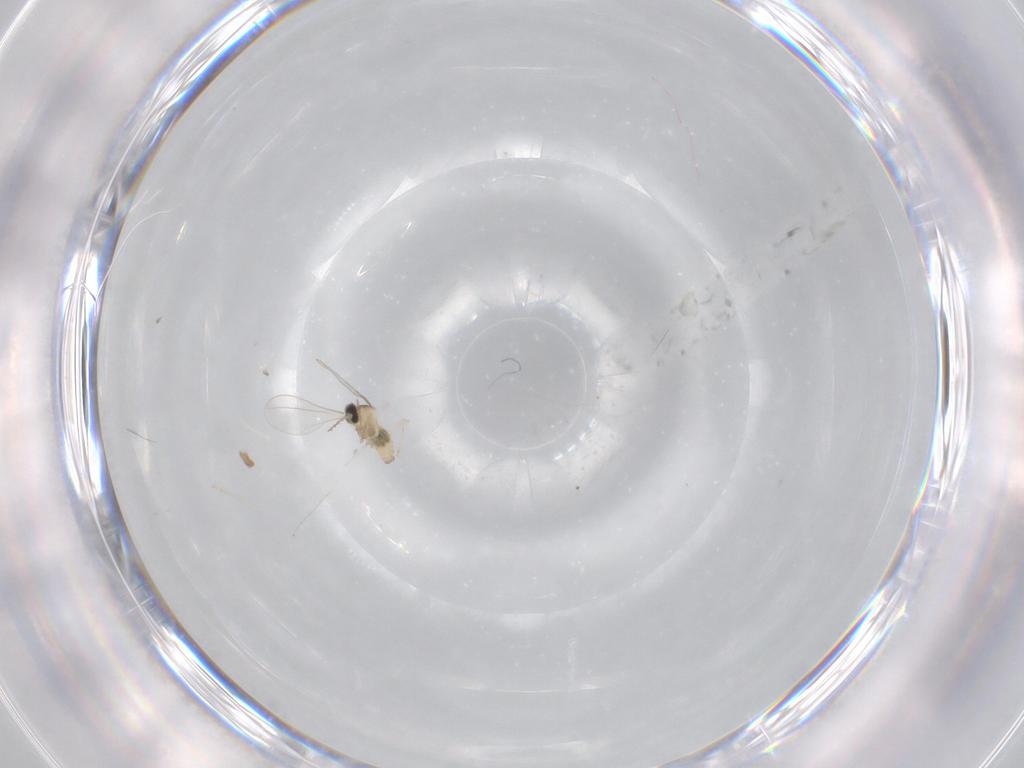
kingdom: Animalia
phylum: Arthropoda
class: Insecta
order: Diptera
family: Cecidomyiidae
